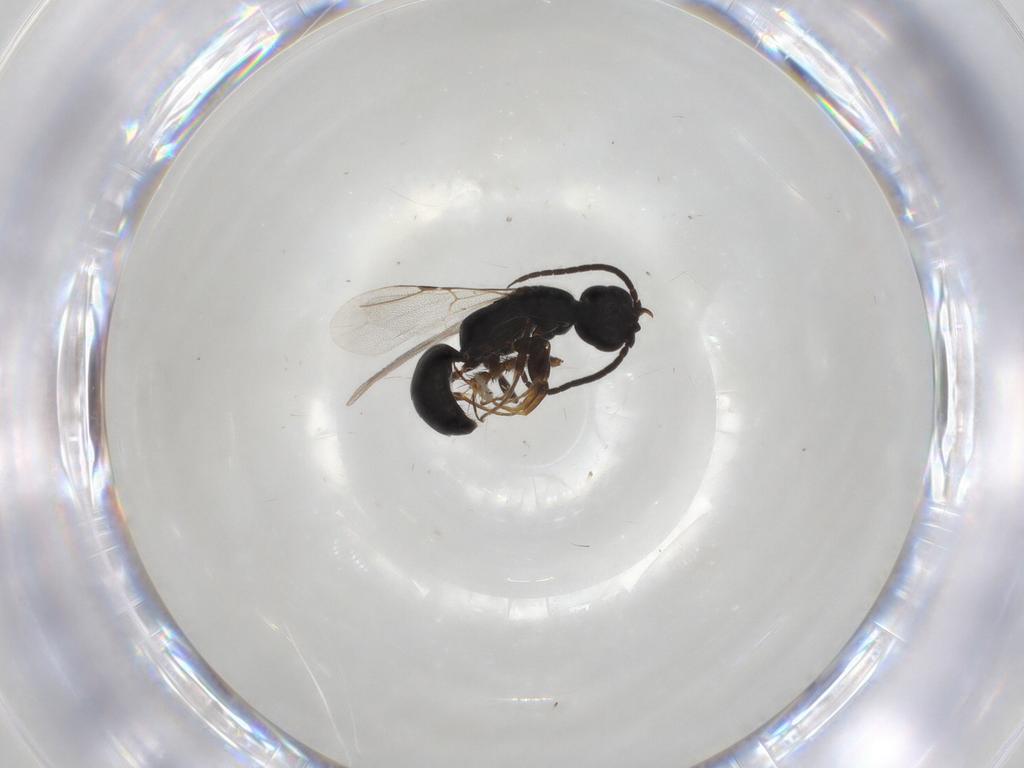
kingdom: Animalia
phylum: Arthropoda
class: Insecta
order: Hymenoptera
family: Bethylidae
